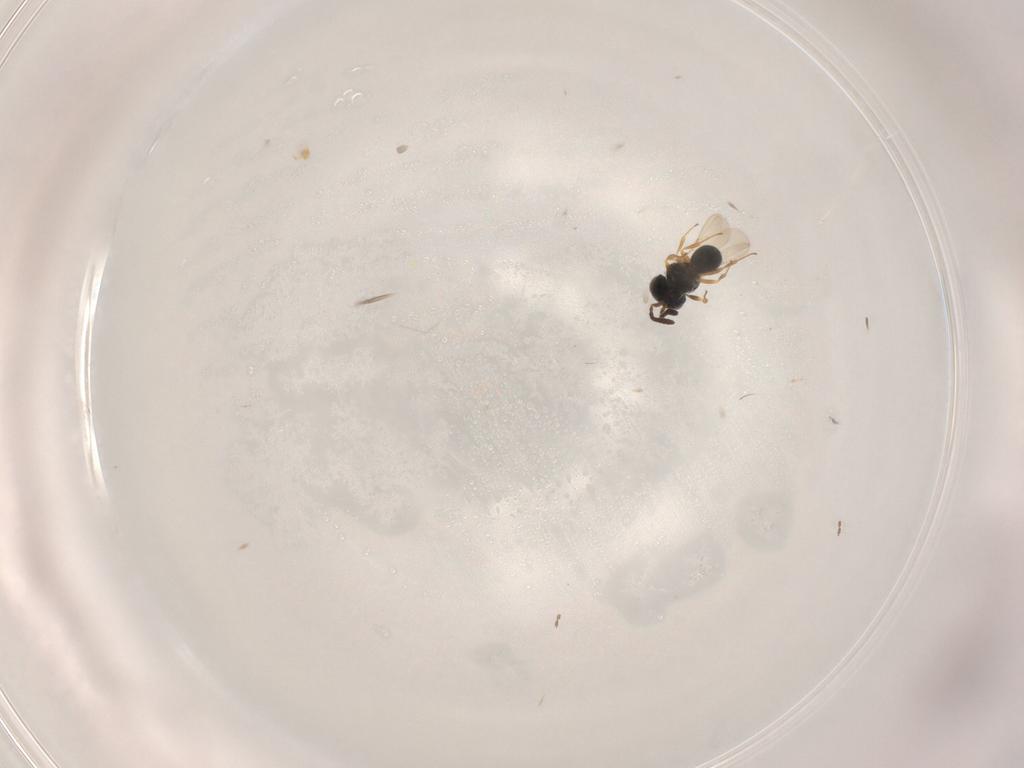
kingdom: Animalia
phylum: Arthropoda
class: Insecta
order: Hymenoptera
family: Scelionidae
